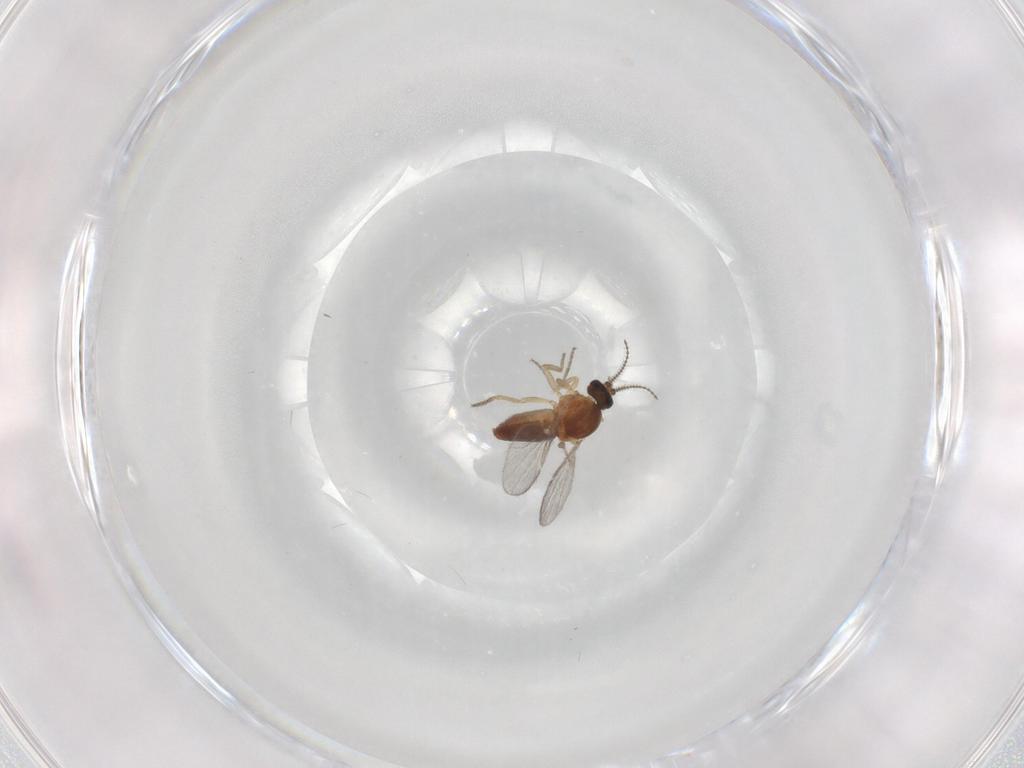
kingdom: Animalia
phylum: Arthropoda
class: Insecta
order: Diptera
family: Ceratopogonidae
